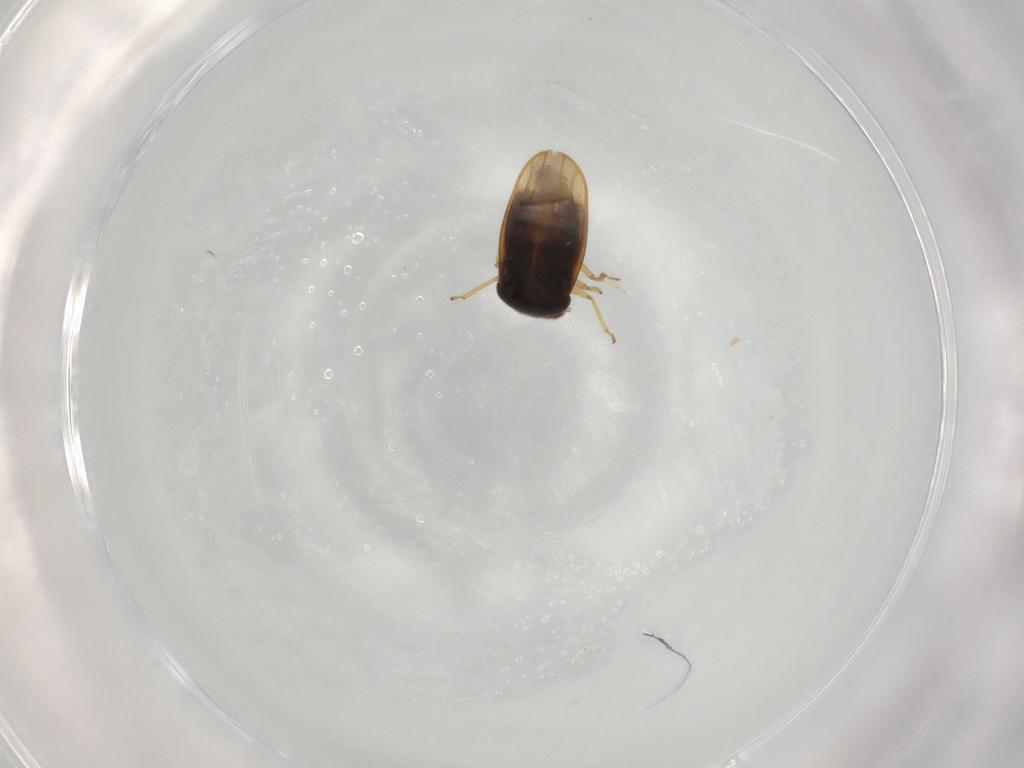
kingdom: Animalia
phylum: Arthropoda
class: Insecta
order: Hemiptera
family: Schizopteridae
